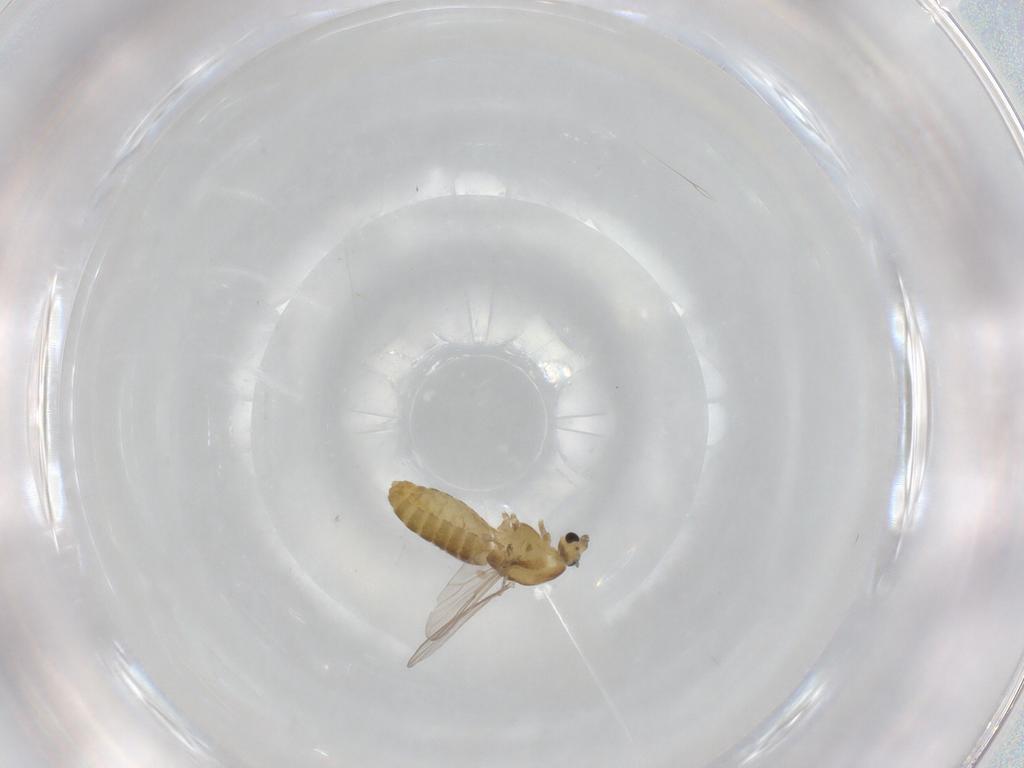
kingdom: Animalia
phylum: Arthropoda
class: Insecta
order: Diptera
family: Chironomidae
